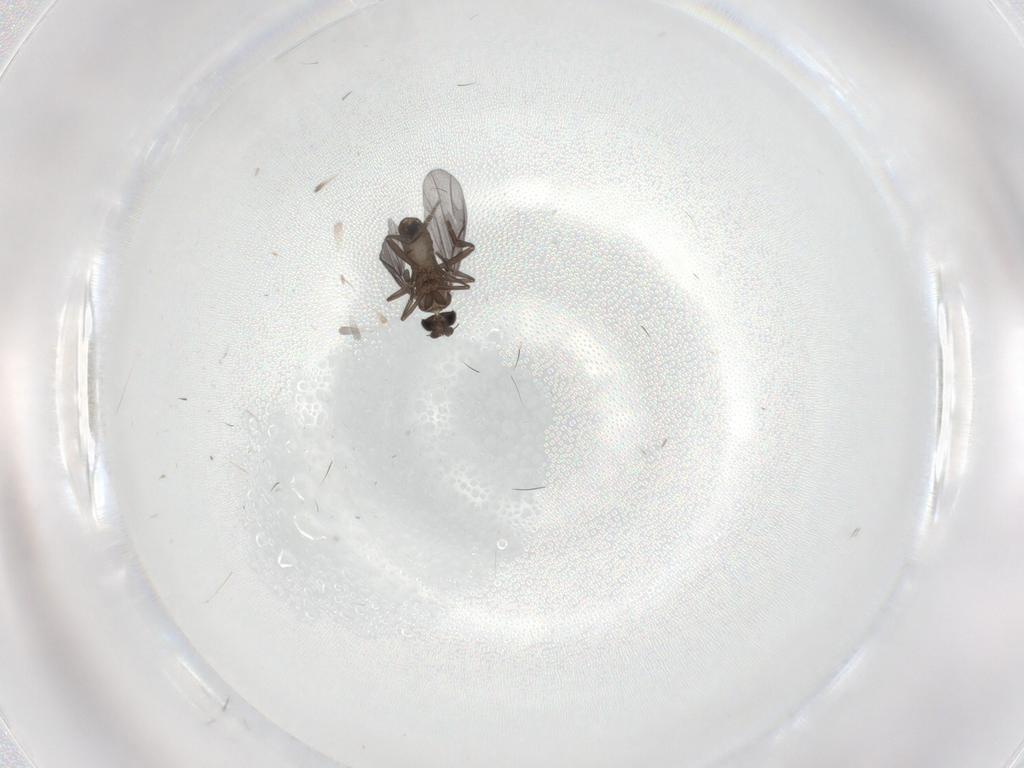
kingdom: Animalia
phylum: Arthropoda
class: Insecta
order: Diptera
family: Phoridae
